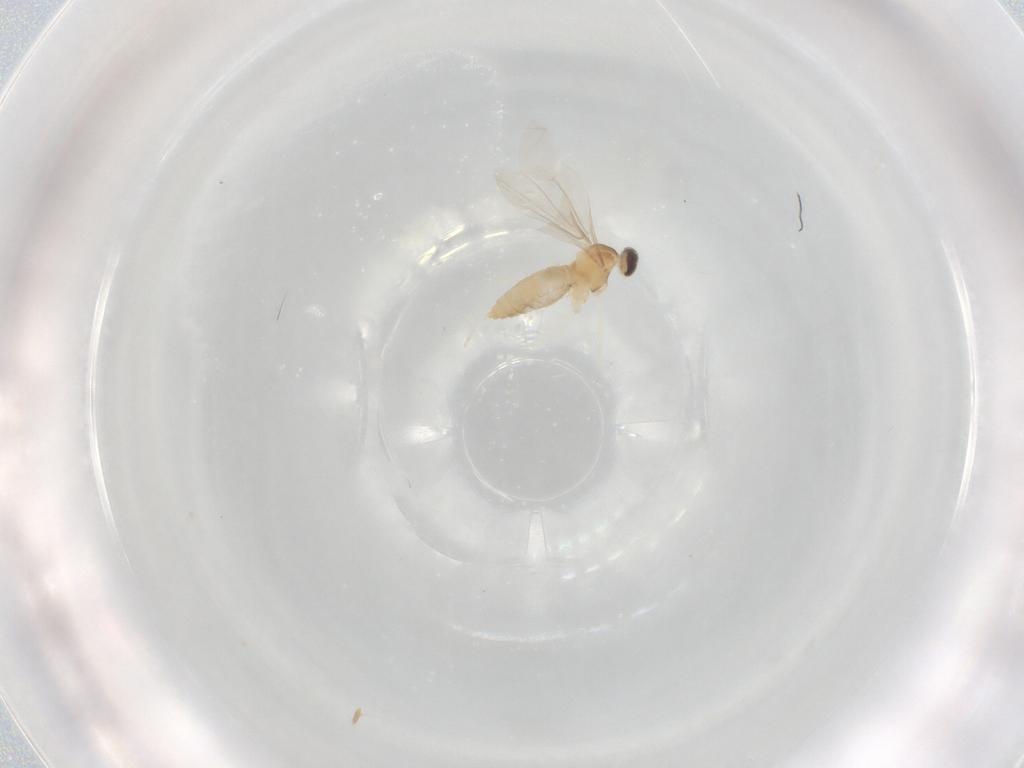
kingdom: Animalia
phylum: Arthropoda
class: Insecta
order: Diptera
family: Cecidomyiidae
